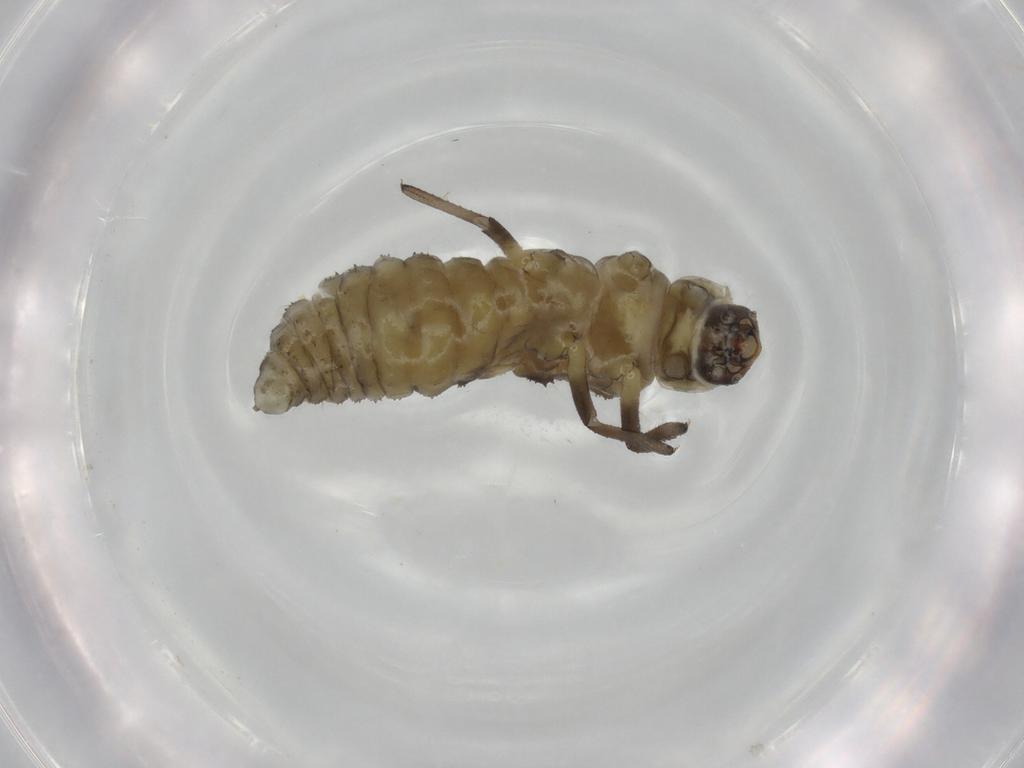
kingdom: Animalia
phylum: Arthropoda
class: Insecta
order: Coleoptera
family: Coccinellidae
